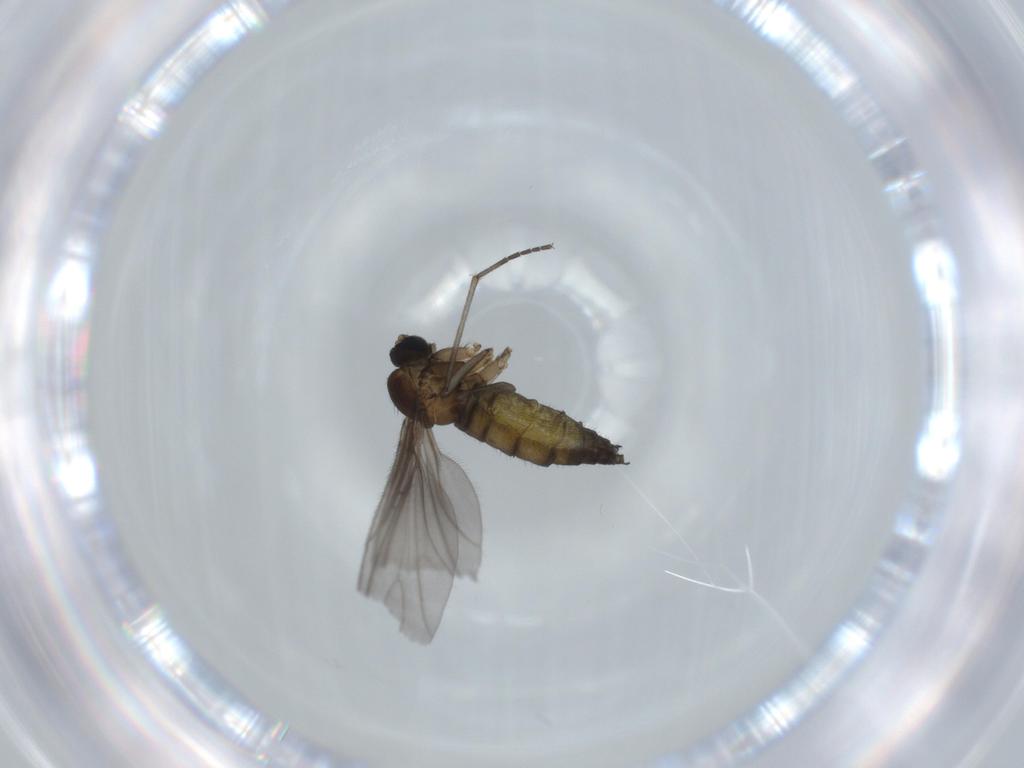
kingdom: Animalia
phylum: Arthropoda
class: Insecta
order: Diptera
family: Sciaridae
